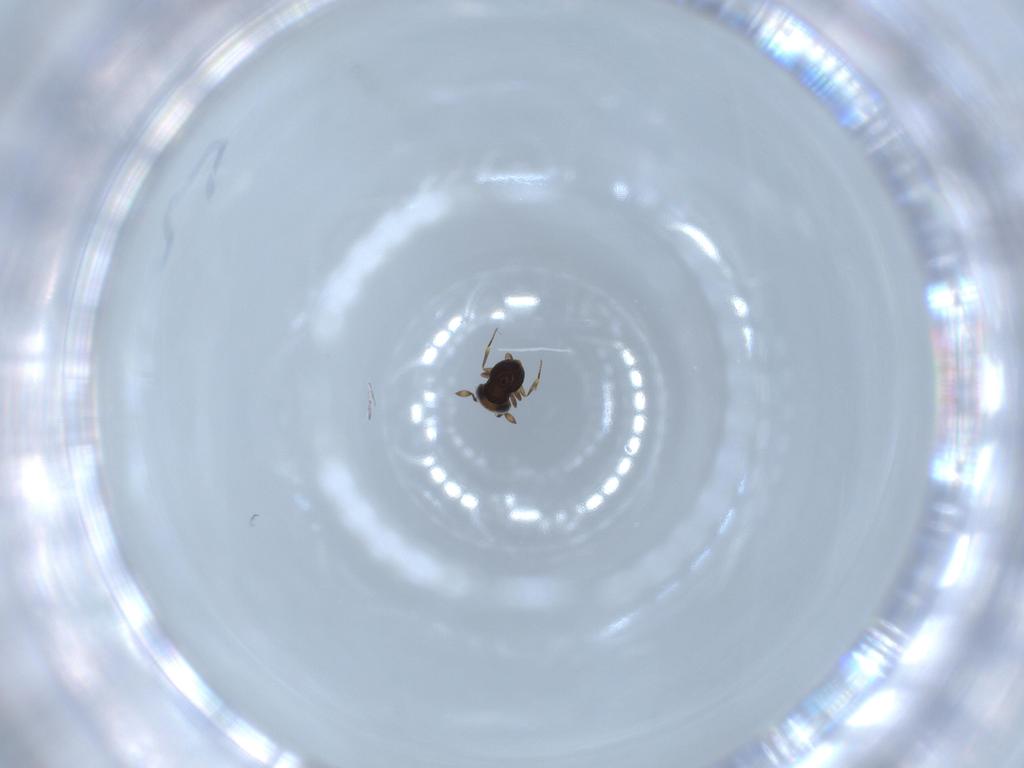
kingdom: Animalia
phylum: Arthropoda
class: Insecta
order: Hymenoptera
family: Scelionidae
